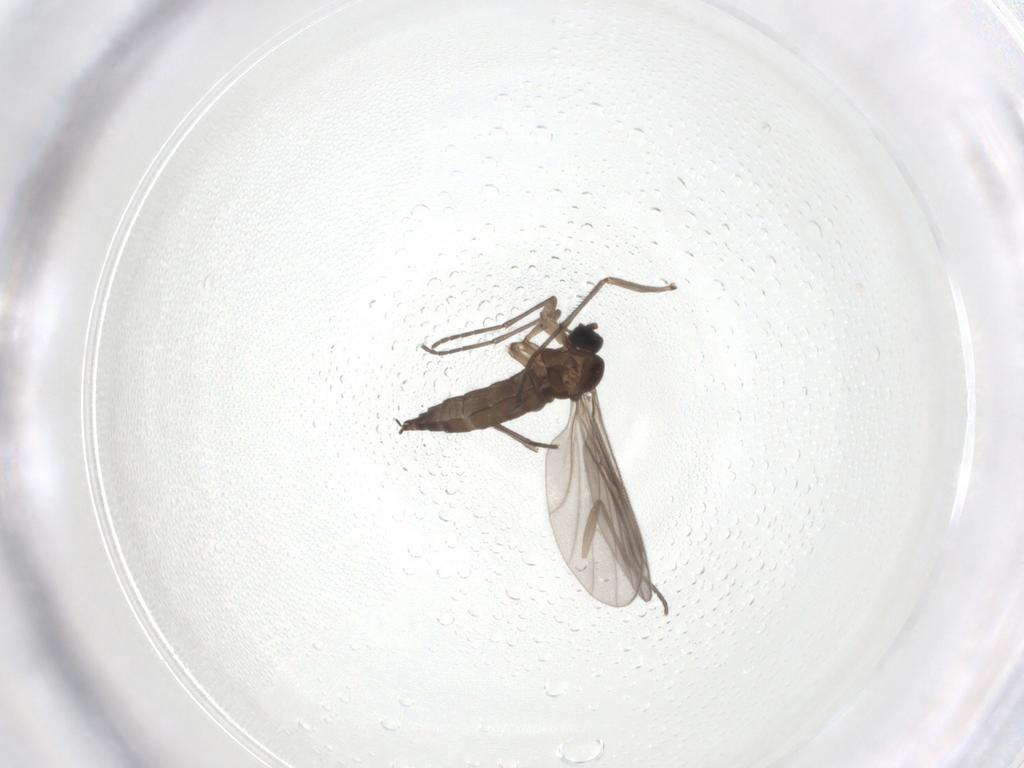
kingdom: Animalia
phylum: Arthropoda
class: Insecta
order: Diptera
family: Sciaridae
